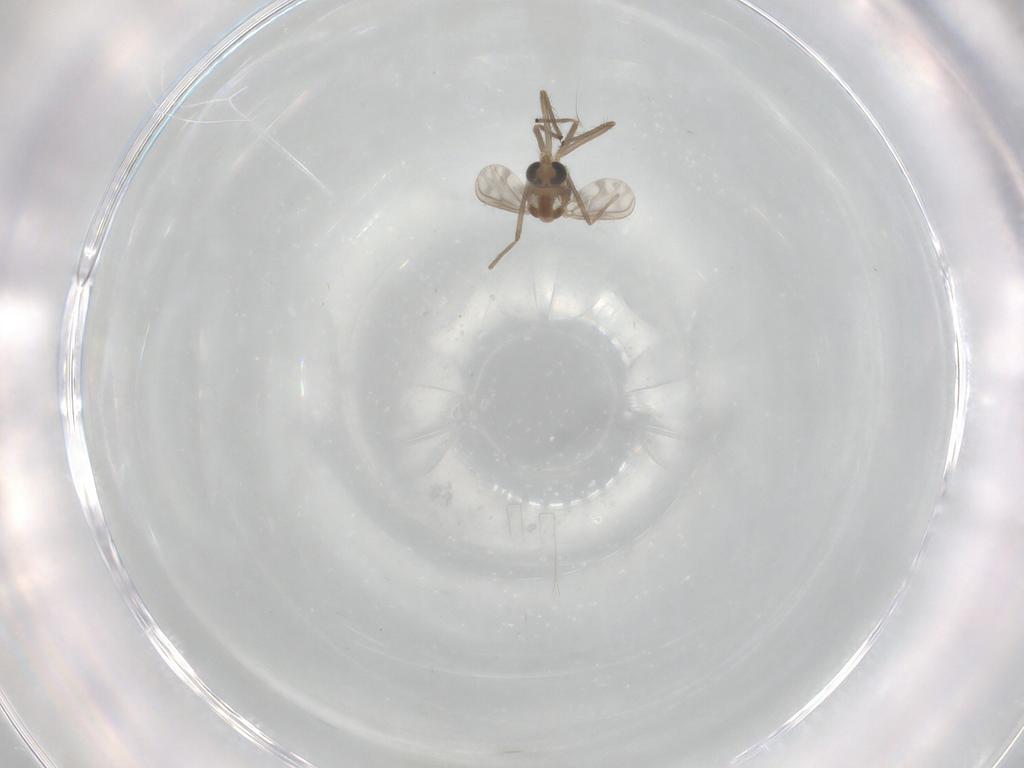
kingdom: Animalia
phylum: Arthropoda
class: Insecta
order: Diptera
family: Chironomidae
